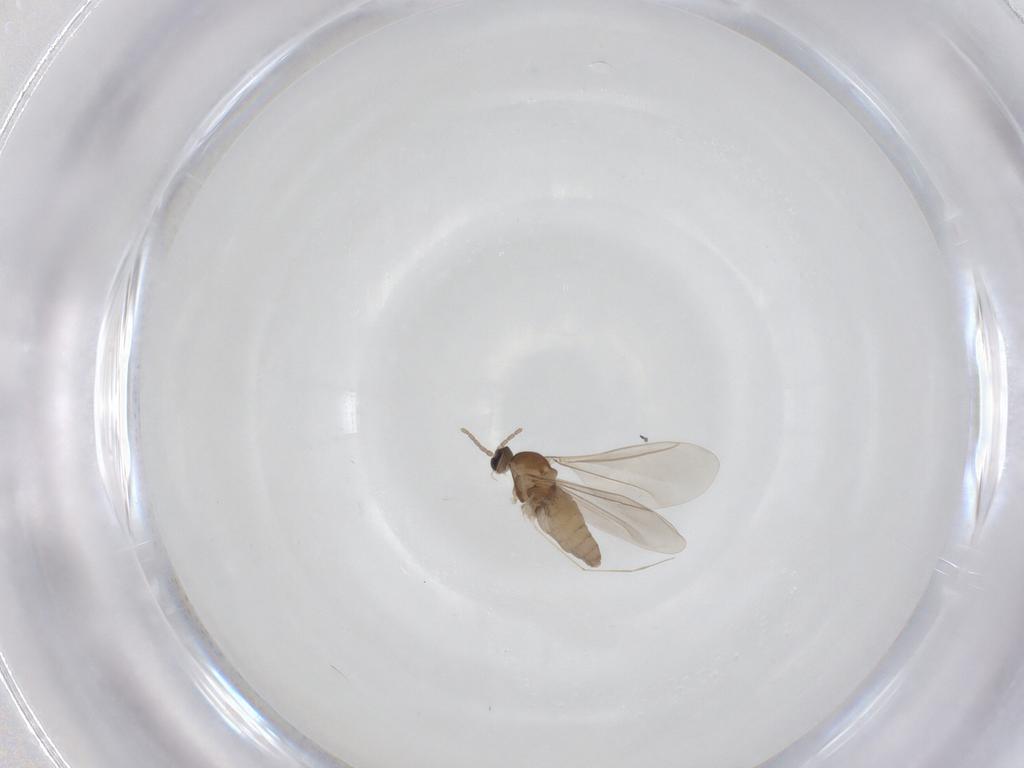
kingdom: Animalia
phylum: Arthropoda
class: Insecta
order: Diptera
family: Cecidomyiidae
